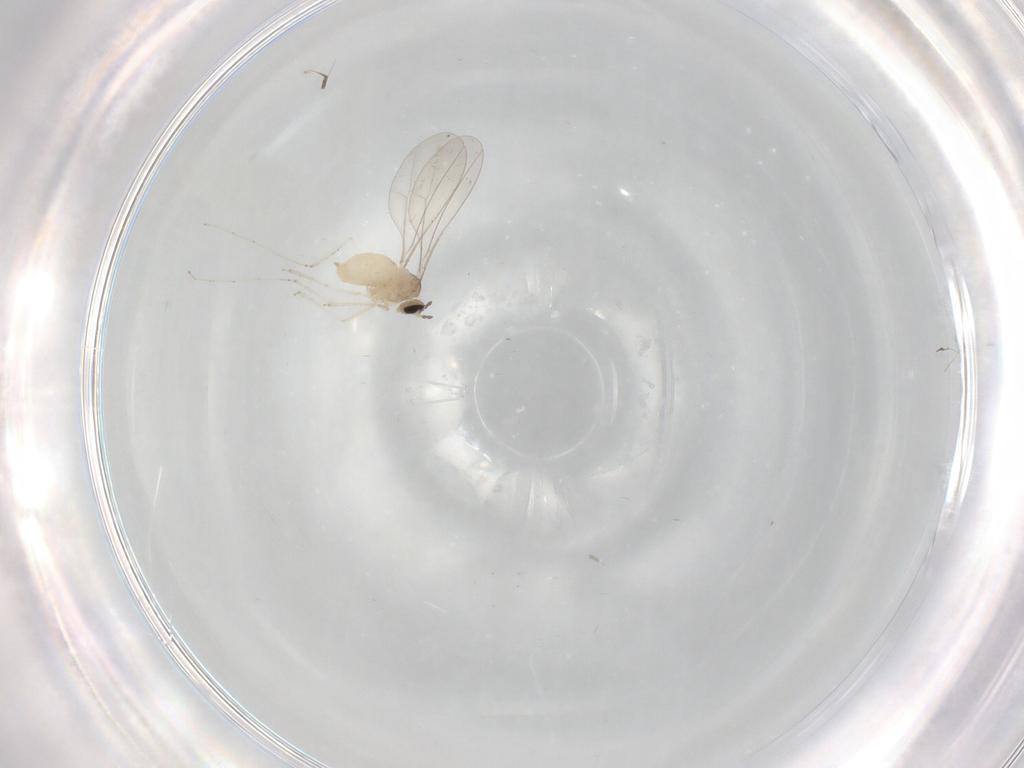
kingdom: Animalia
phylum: Arthropoda
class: Insecta
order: Diptera
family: Cecidomyiidae
